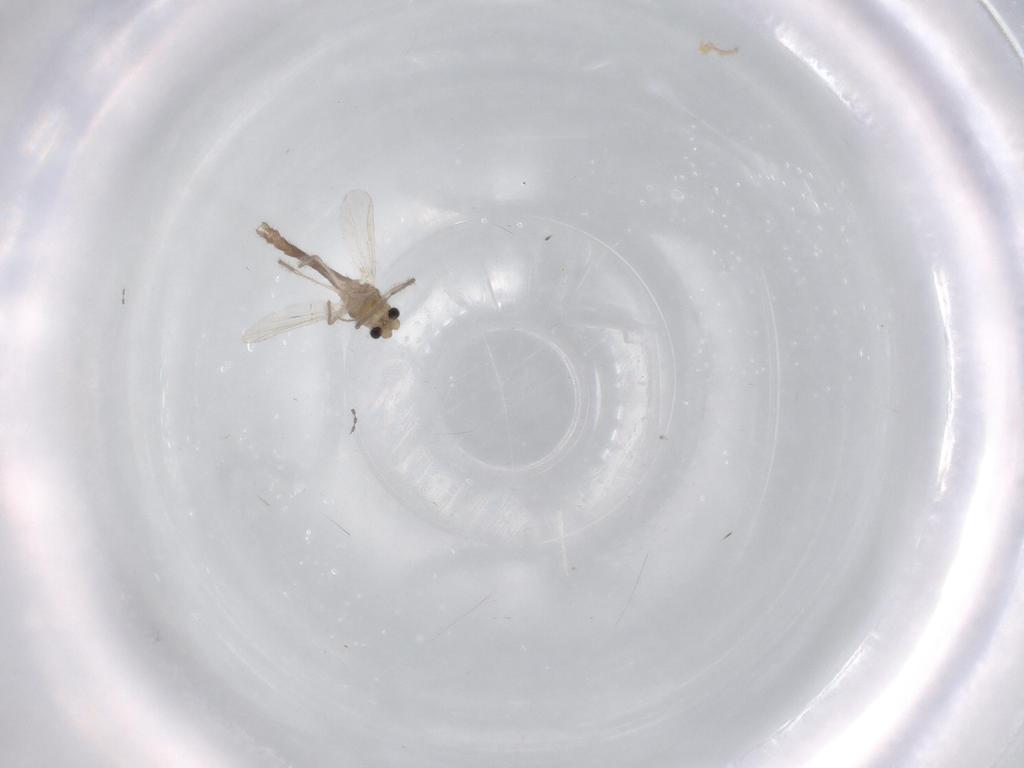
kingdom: Animalia
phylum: Arthropoda
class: Insecta
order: Diptera
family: Chironomidae
